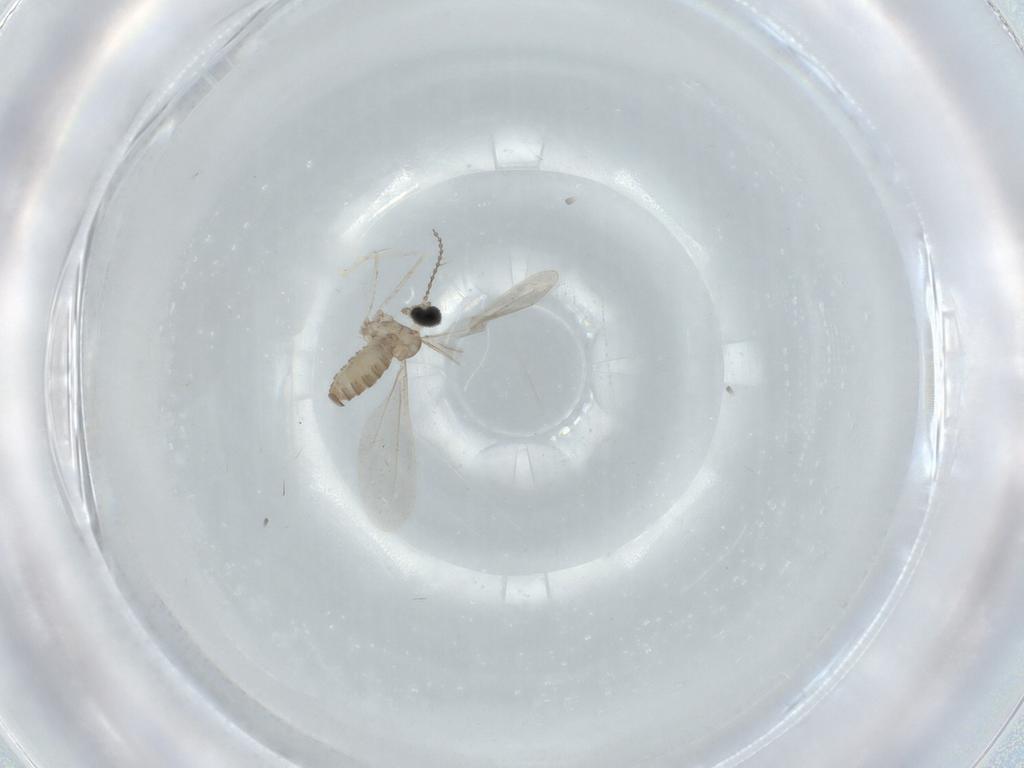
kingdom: Animalia
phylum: Arthropoda
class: Insecta
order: Diptera
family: Cecidomyiidae
